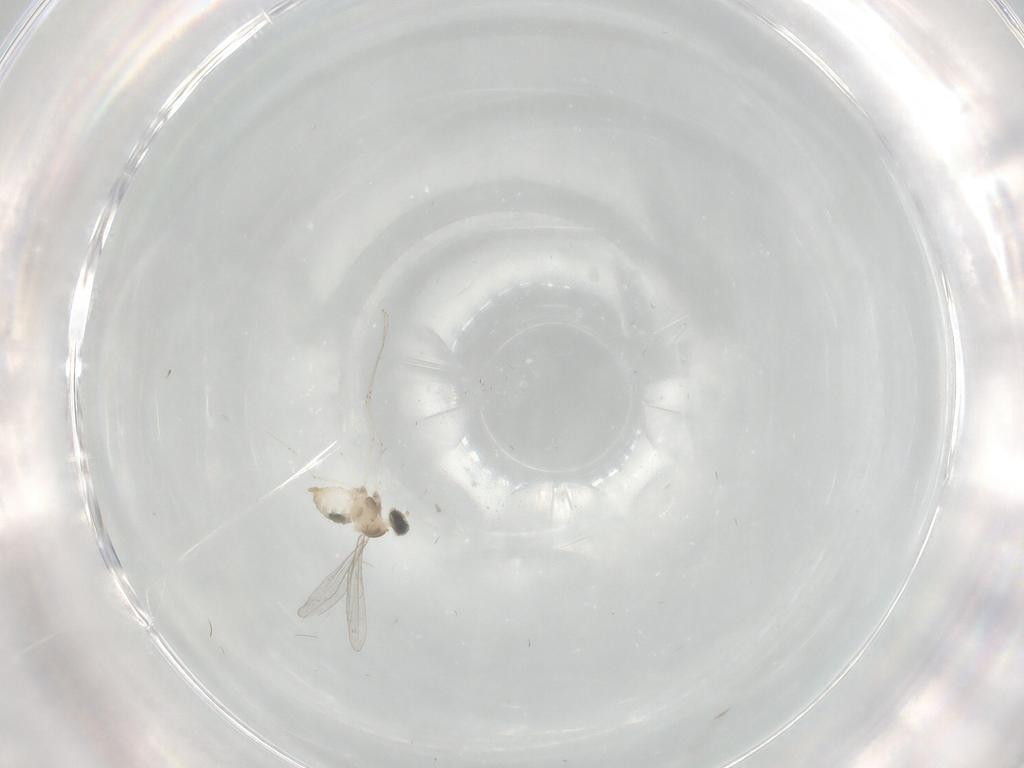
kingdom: Animalia
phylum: Arthropoda
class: Insecta
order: Diptera
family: Cecidomyiidae
